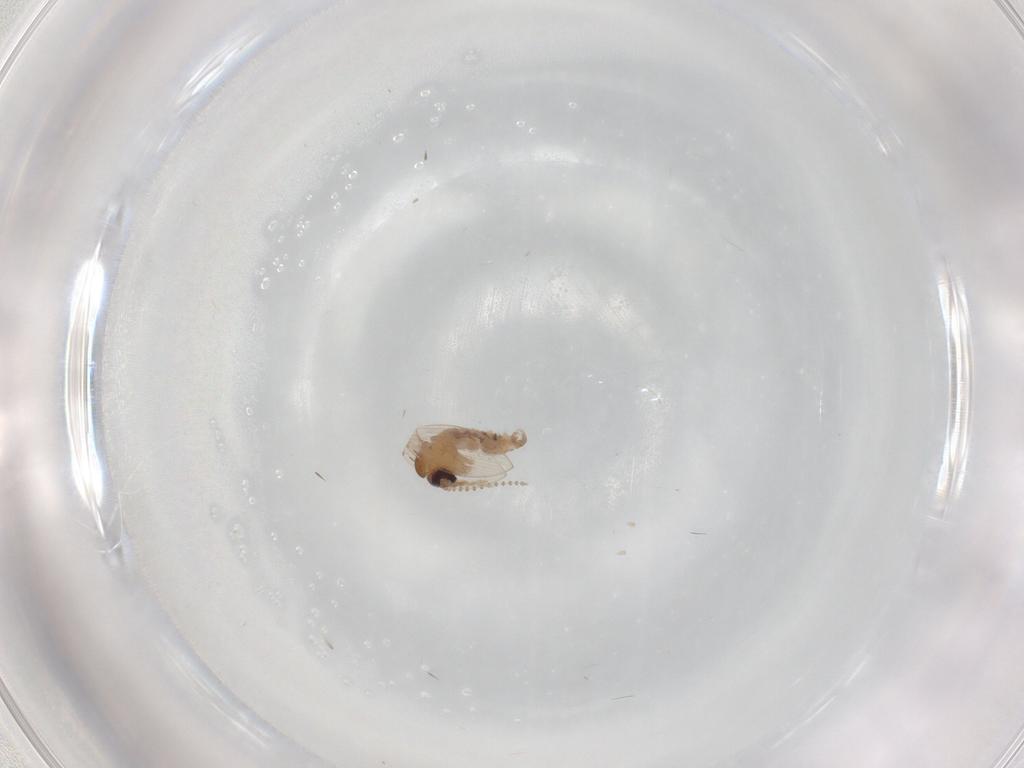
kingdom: Animalia
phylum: Arthropoda
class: Insecta
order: Diptera
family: Psychodidae
